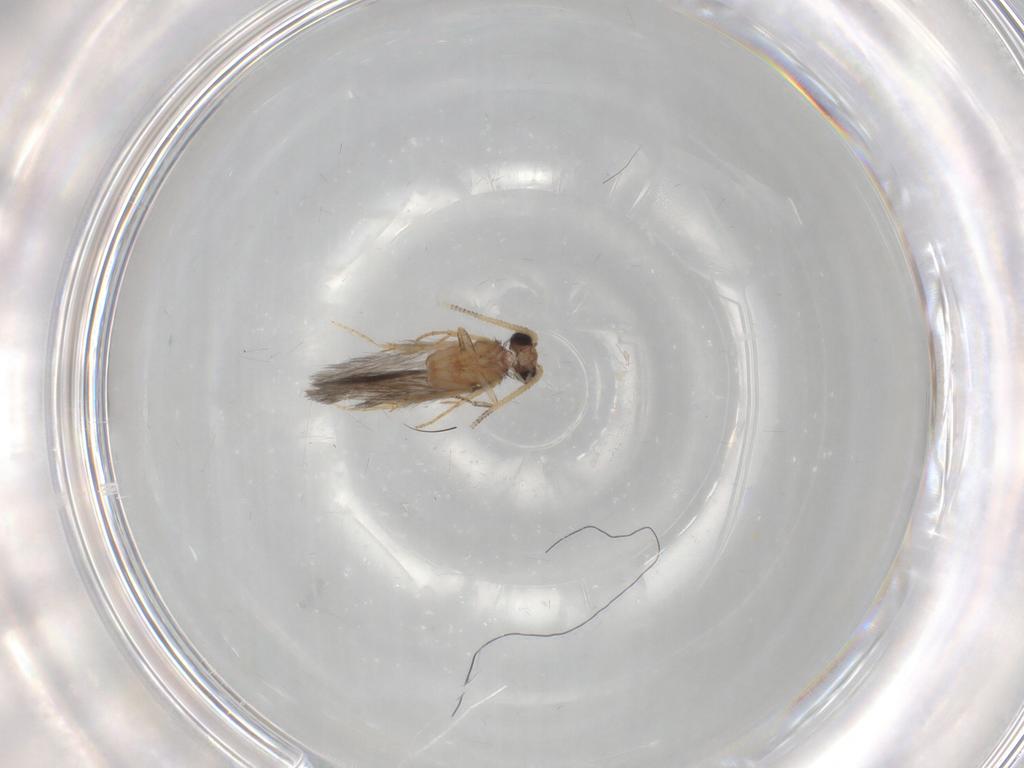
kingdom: Animalia
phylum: Arthropoda
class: Insecta
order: Trichoptera
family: Hydroptilidae
